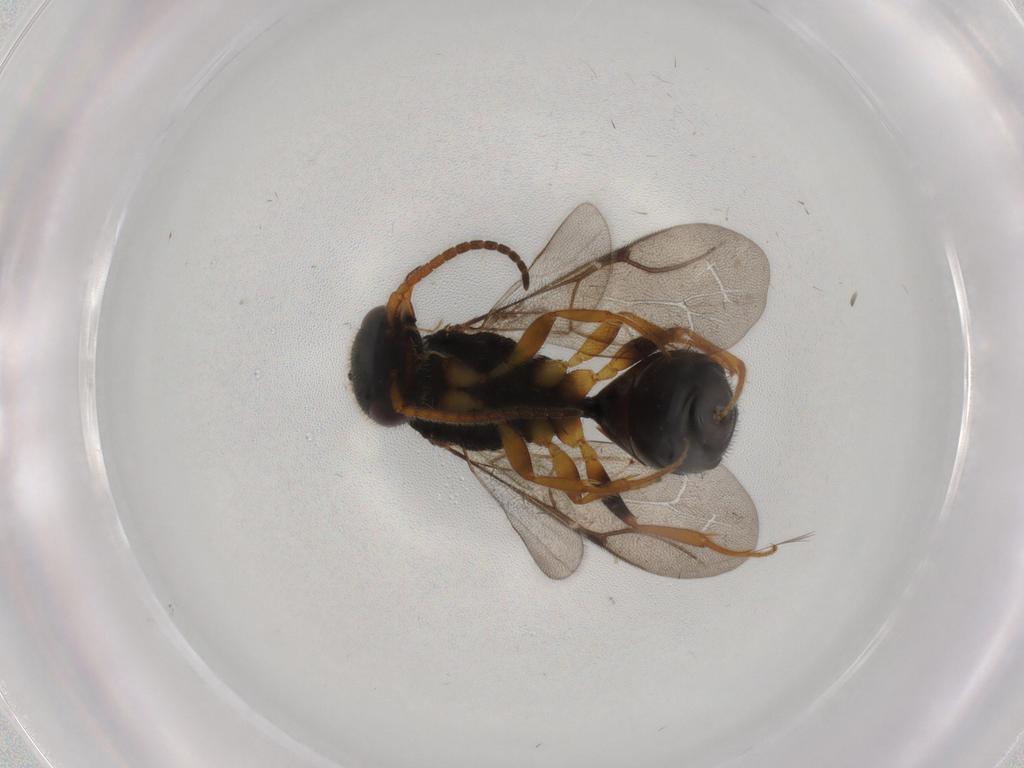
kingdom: Animalia
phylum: Arthropoda
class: Insecta
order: Hymenoptera
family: Bethylidae
